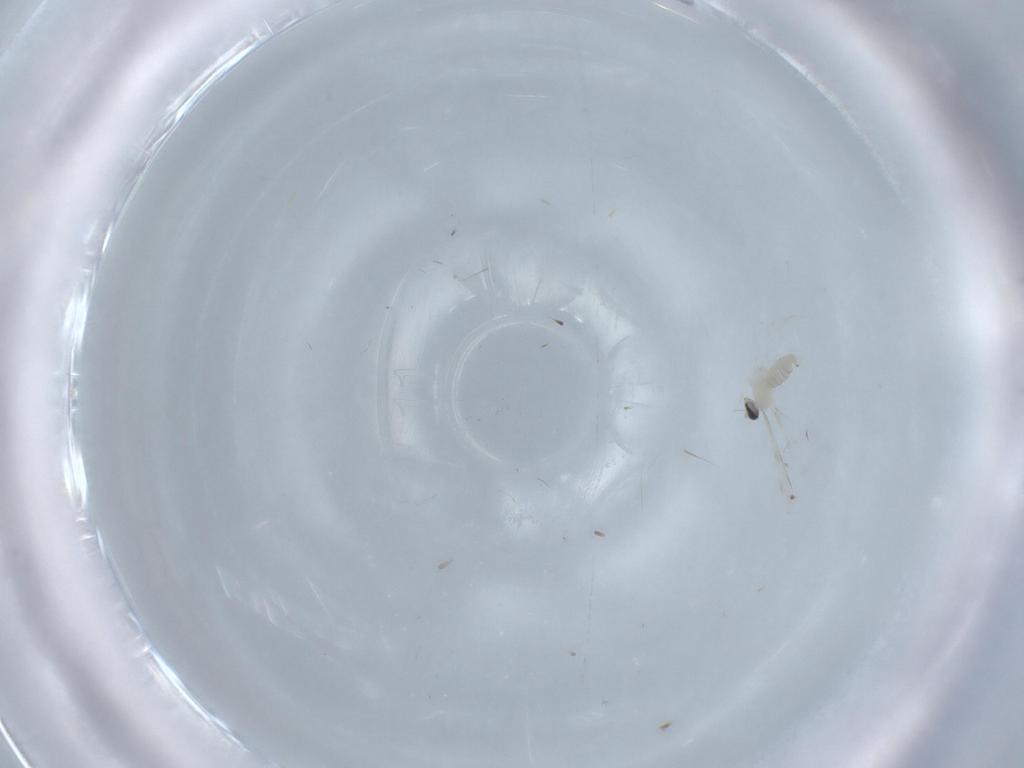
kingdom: Animalia
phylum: Arthropoda
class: Insecta
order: Diptera
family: Cecidomyiidae
